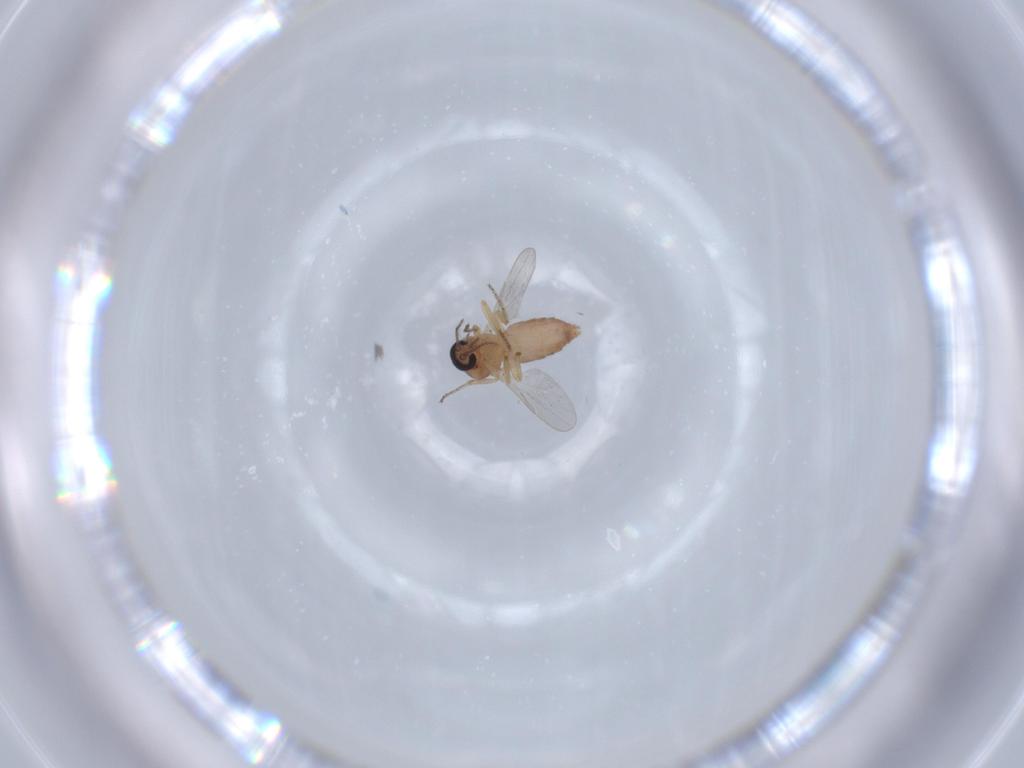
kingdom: Animalia
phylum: Arthropoda
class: Insecta
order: Diptera
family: Ceratopogonidae
